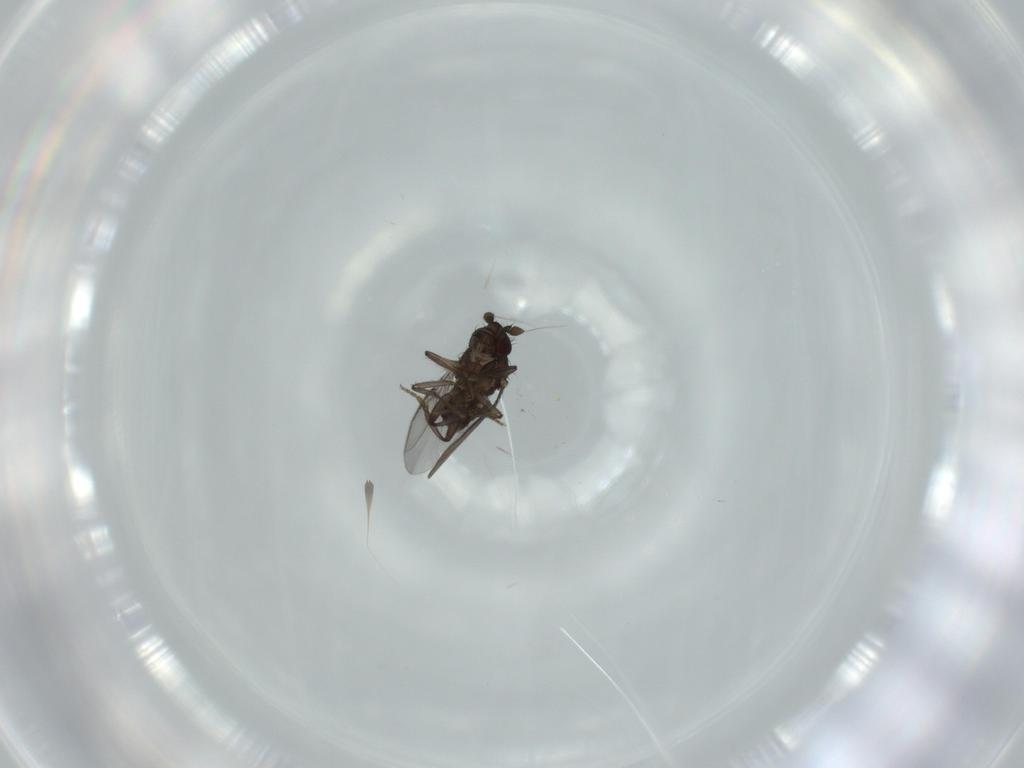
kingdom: Animalia
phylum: Arthropoda
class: Insecta
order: Diptera
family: Sphaeroceridae
